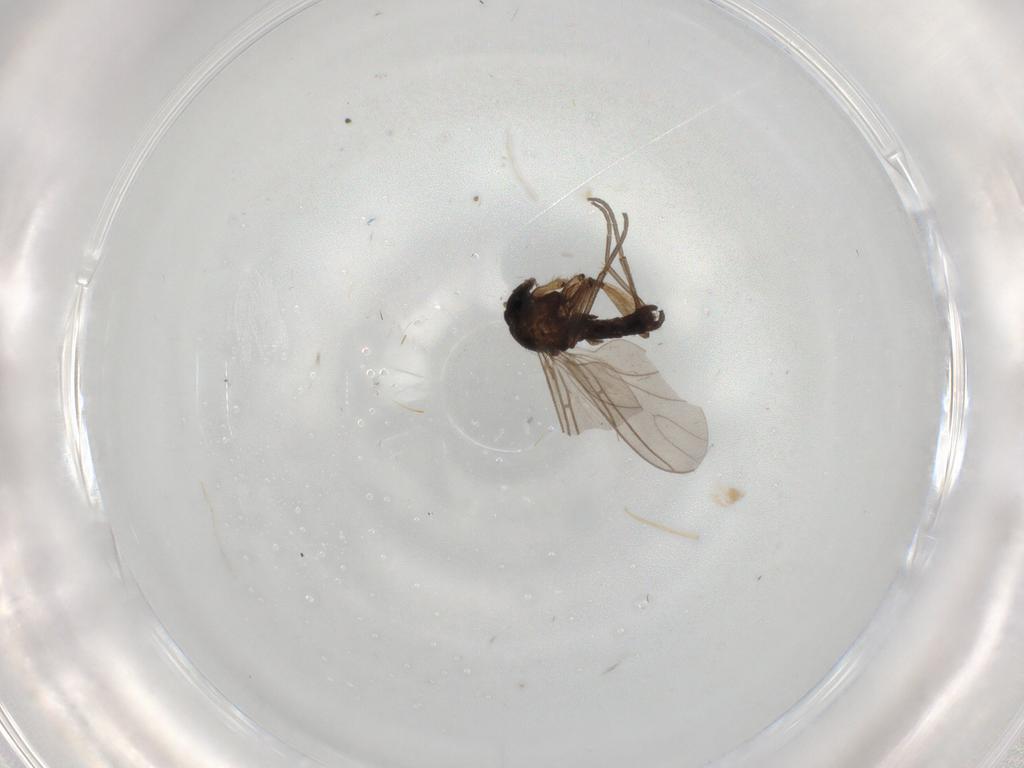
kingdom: Animalia
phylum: Arthropoda
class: Insecta
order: Diptera
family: Sciaridae
